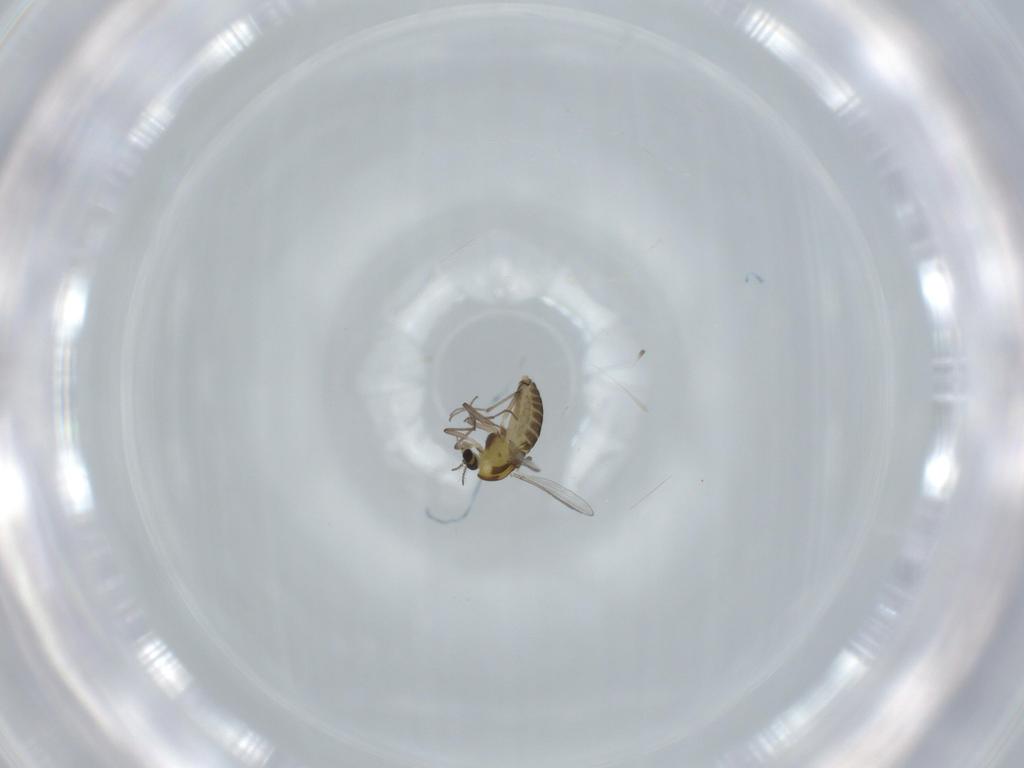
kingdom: Animalia
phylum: Arthropoda
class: Insecta
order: Diptera
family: Chironomidae
